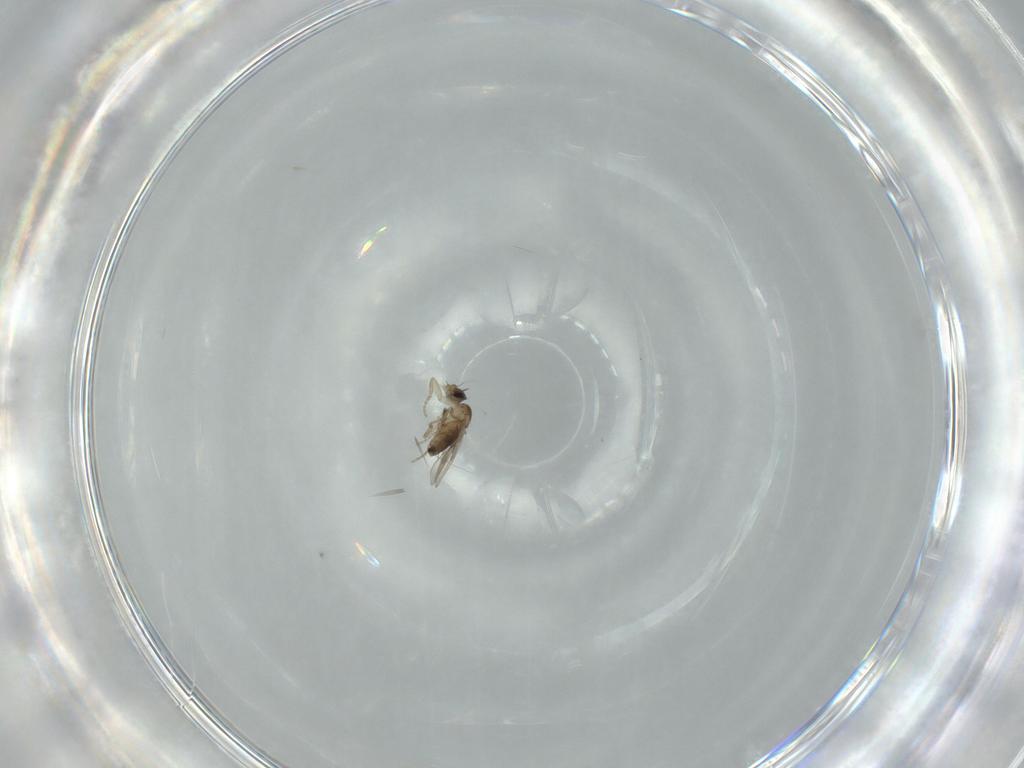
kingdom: Animalia
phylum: Arthropoda
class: Insecta
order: Diptera
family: Phoridae
